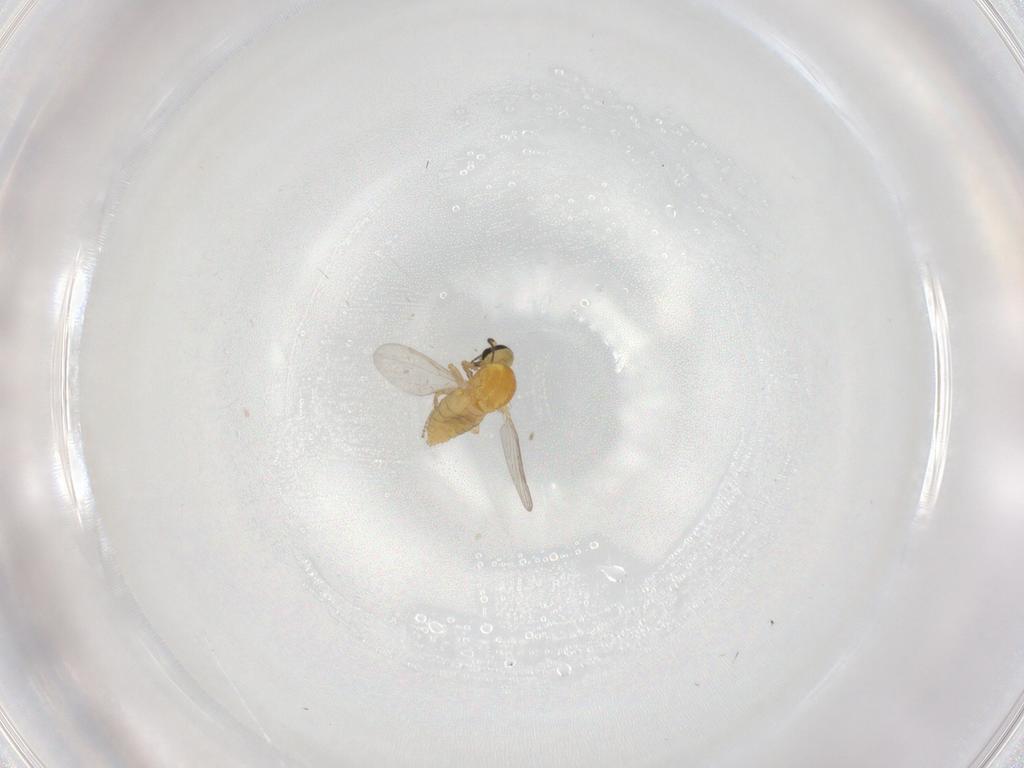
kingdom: Animalia
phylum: Arthropoda
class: Insecta
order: Diptera
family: Ceratopogonidae
